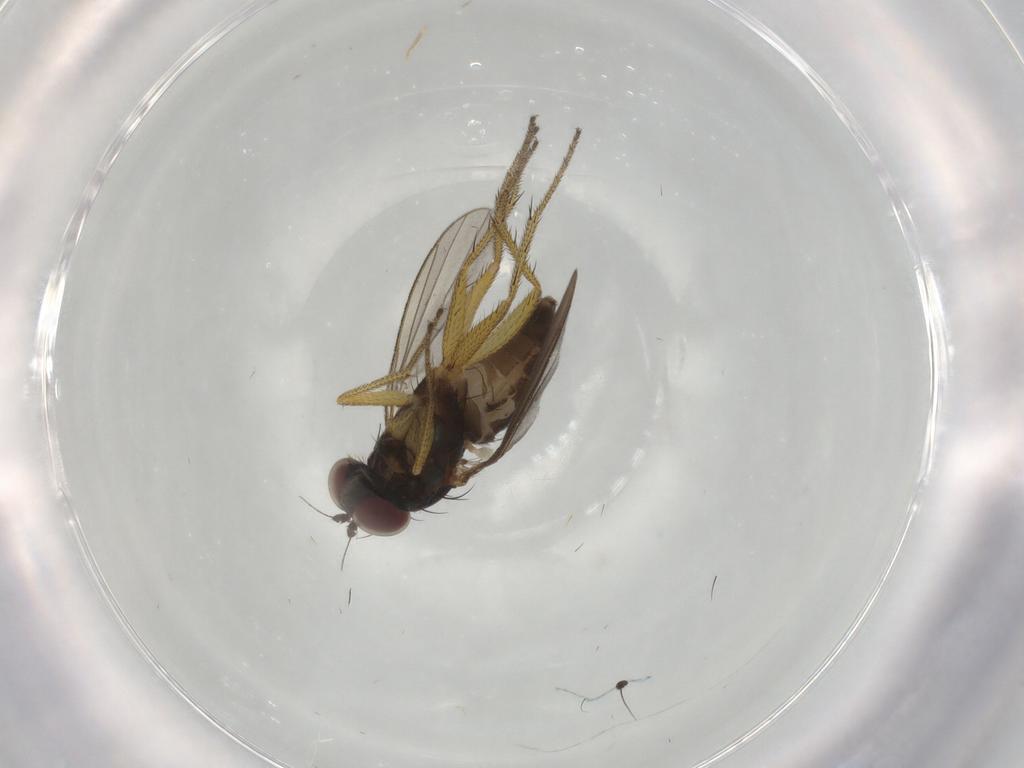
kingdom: Animalia
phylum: Arthropoda
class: Insecta
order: Diptera
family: Dolichopodidae
